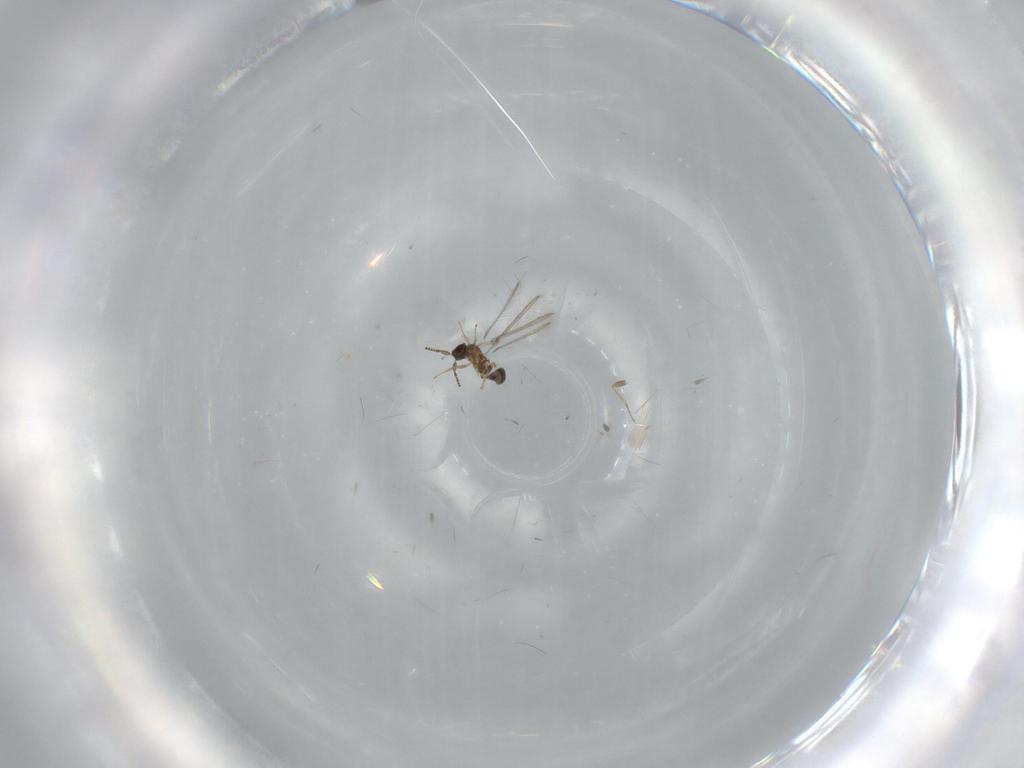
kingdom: Animalia
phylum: Arthropoda
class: Insecta
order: Hymenoptera
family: Mymaridae
